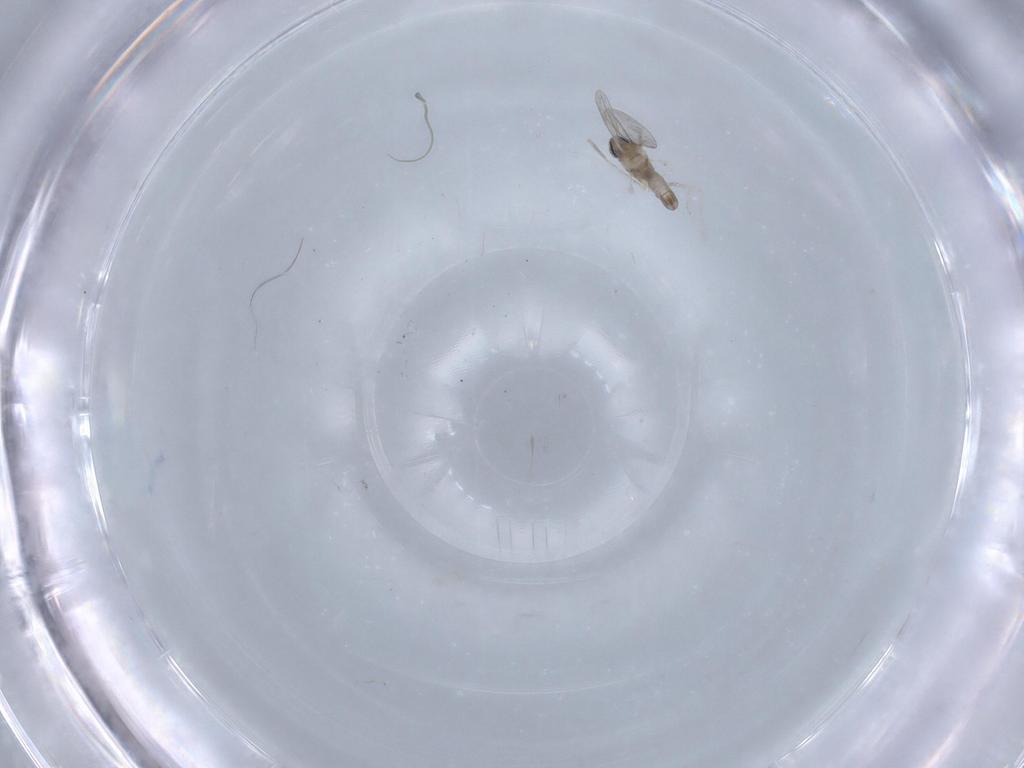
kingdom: Animalia
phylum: Arthropoda
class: Insecta
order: Diptera
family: Cecidomyiidae
